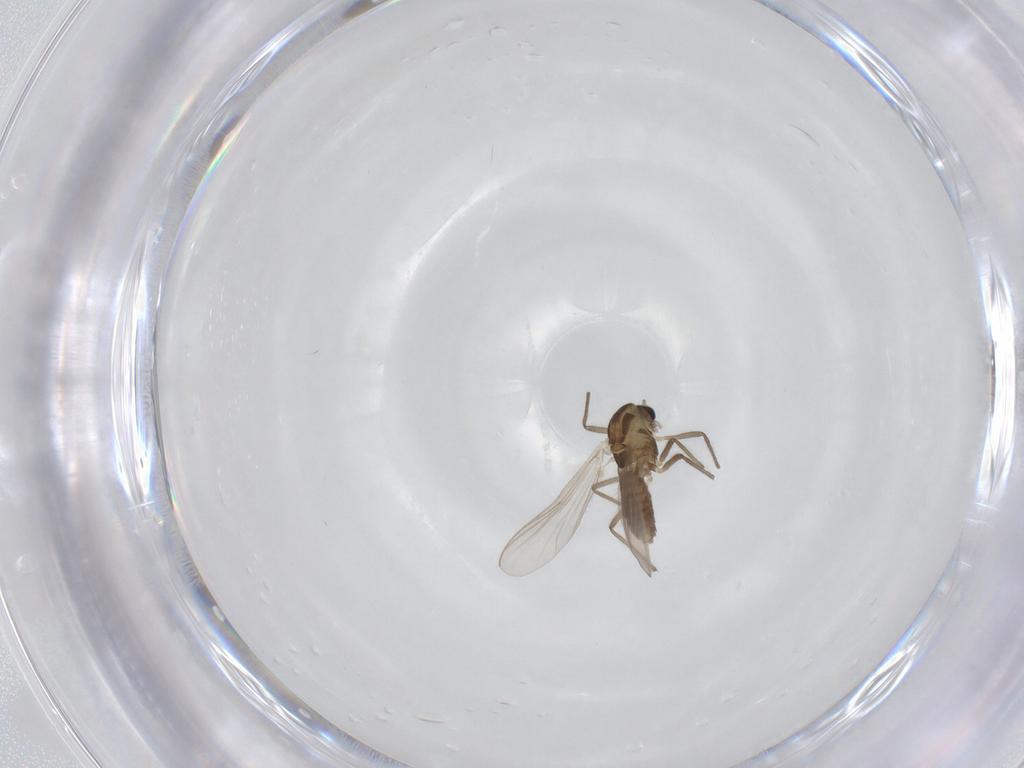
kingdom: Animalia
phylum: Arthropoda
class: Insecta
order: Diptera
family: Chironomidae
